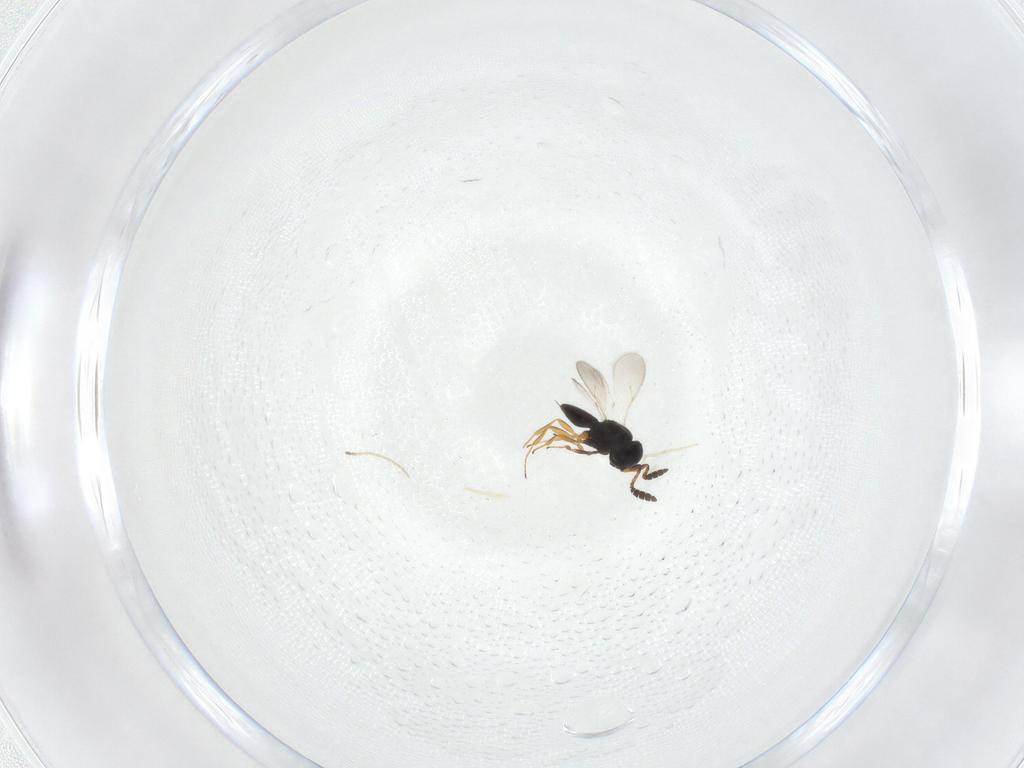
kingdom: Animalia
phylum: Arthropoda
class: Insecta
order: Hymenoptera
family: Scelionidae
